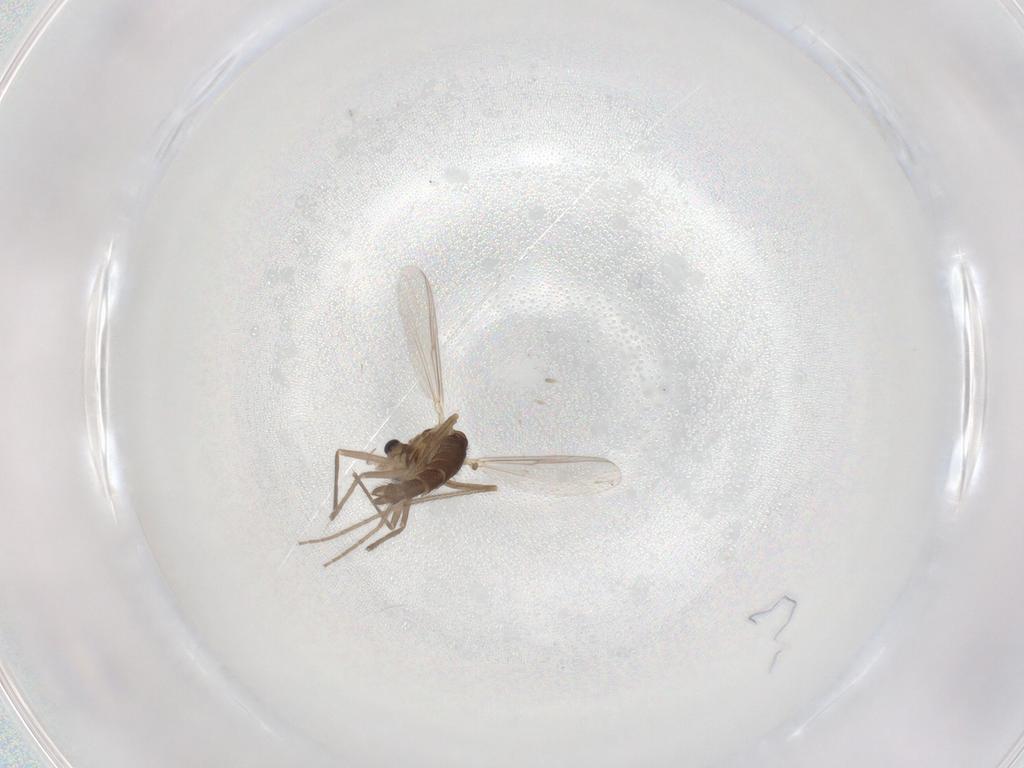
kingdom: Animalia
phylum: Arthropoda
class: Insecta
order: Diptera
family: Chironomidae
